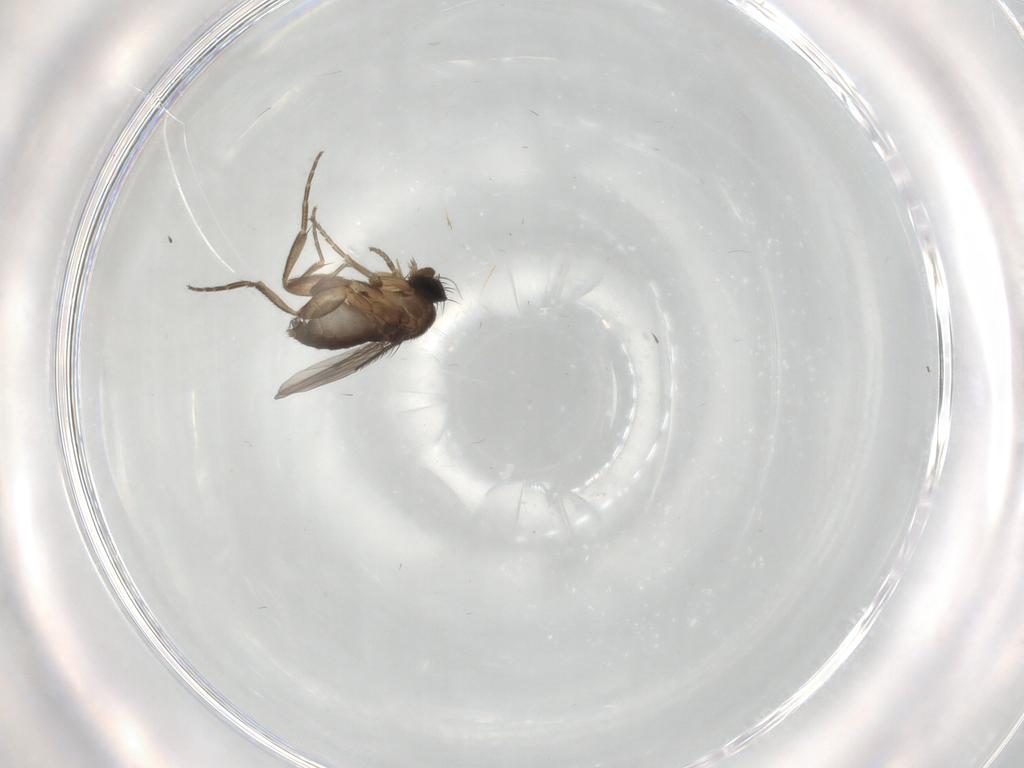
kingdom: Animalia
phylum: Arthropoda
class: Insecta
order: Diptera
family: Phoridae
